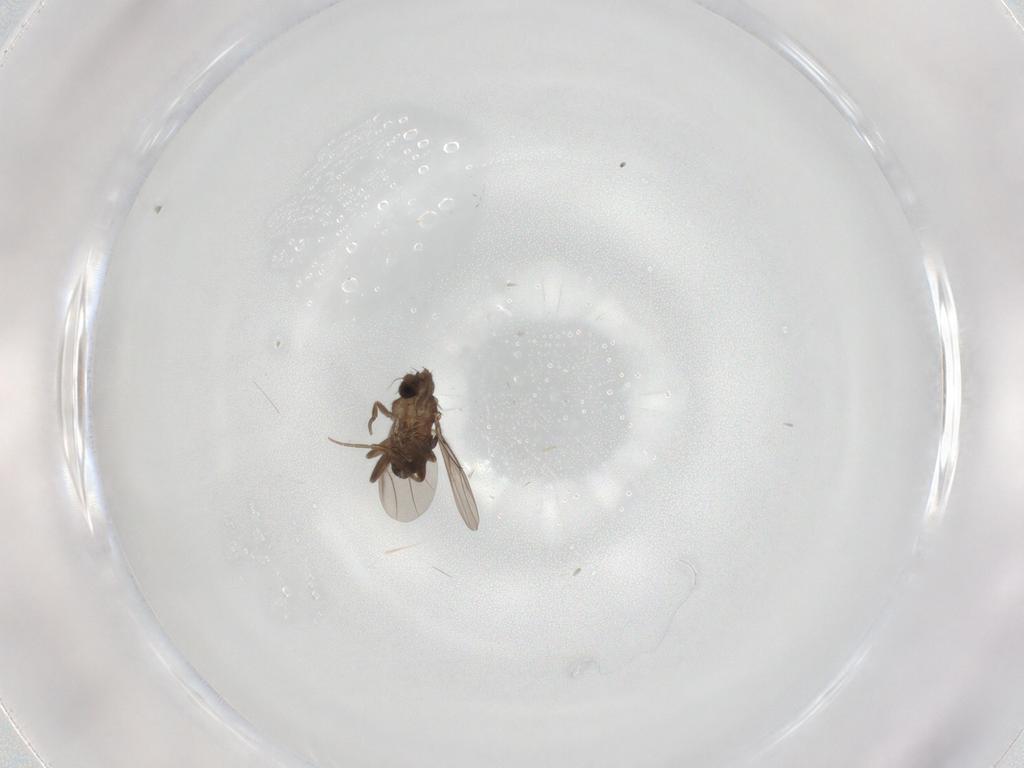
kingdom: Animalia
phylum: Arthropoda
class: Insecta
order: Diptera
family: Phoridae
